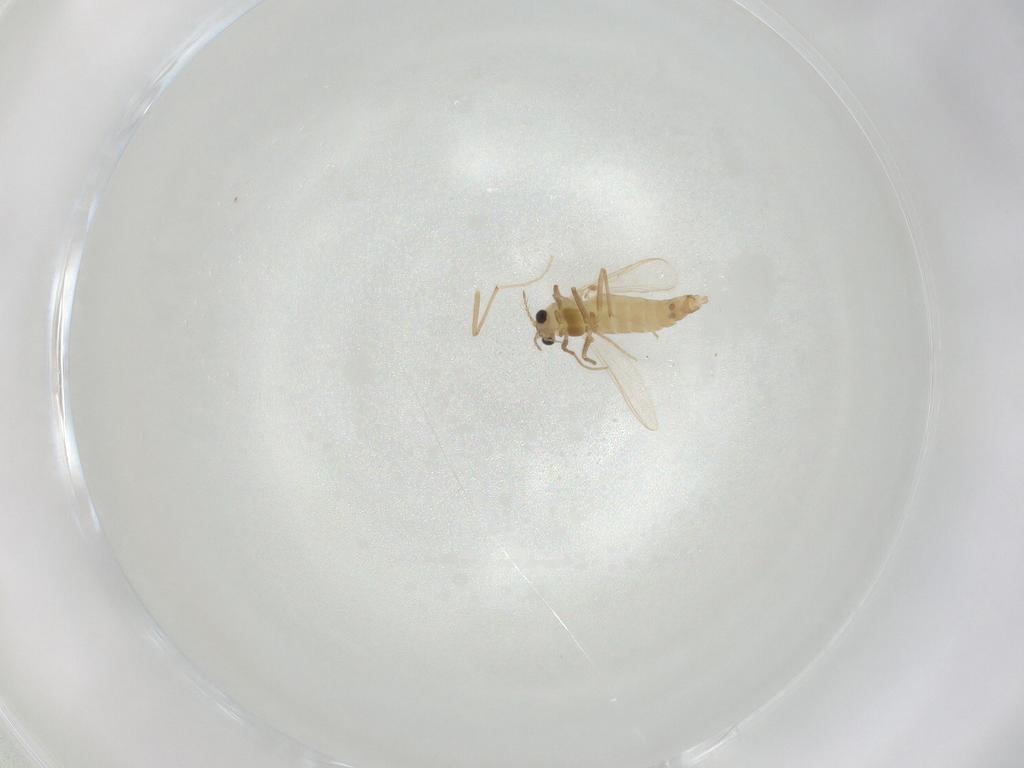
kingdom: Animalia
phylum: Arthropoda
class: Insecta
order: Diptera
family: Chironomidae
